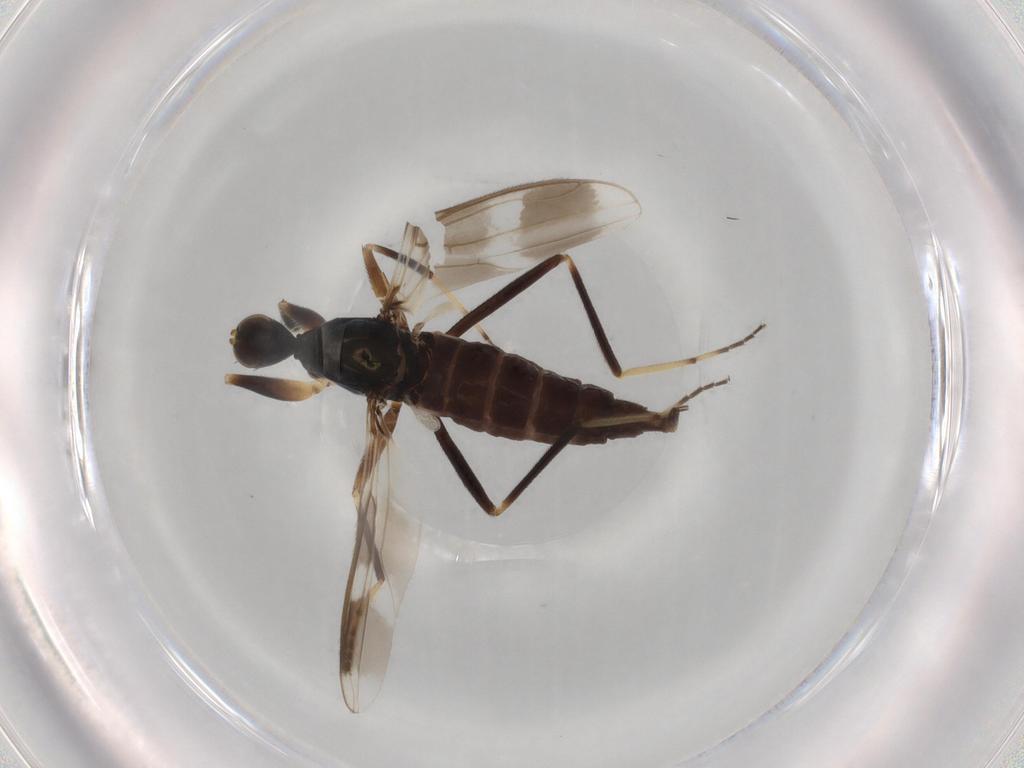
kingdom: Animalia
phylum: Arthropoda
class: Insecta
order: Diptera
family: Hybotidae
